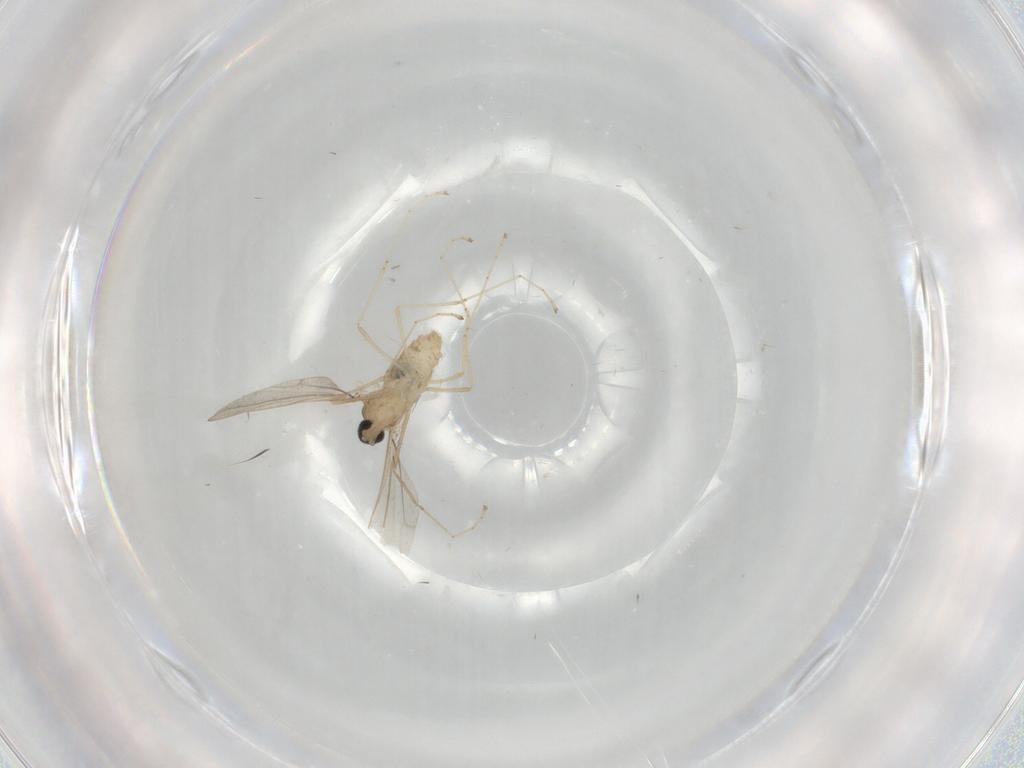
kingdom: Animalia
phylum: Arthropoda
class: Insecta
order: Diptera
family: Cecidomyiidae
